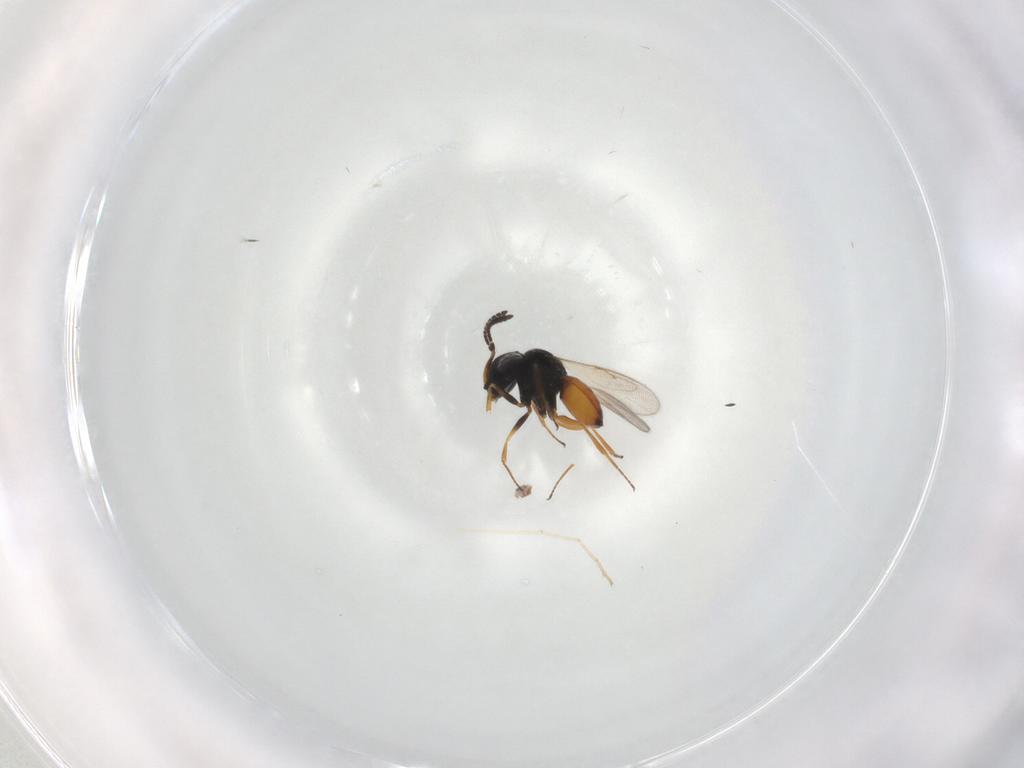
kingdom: Animalia
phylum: Arthropoda
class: Insecta
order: Hymenoptera
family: Scelionidae
